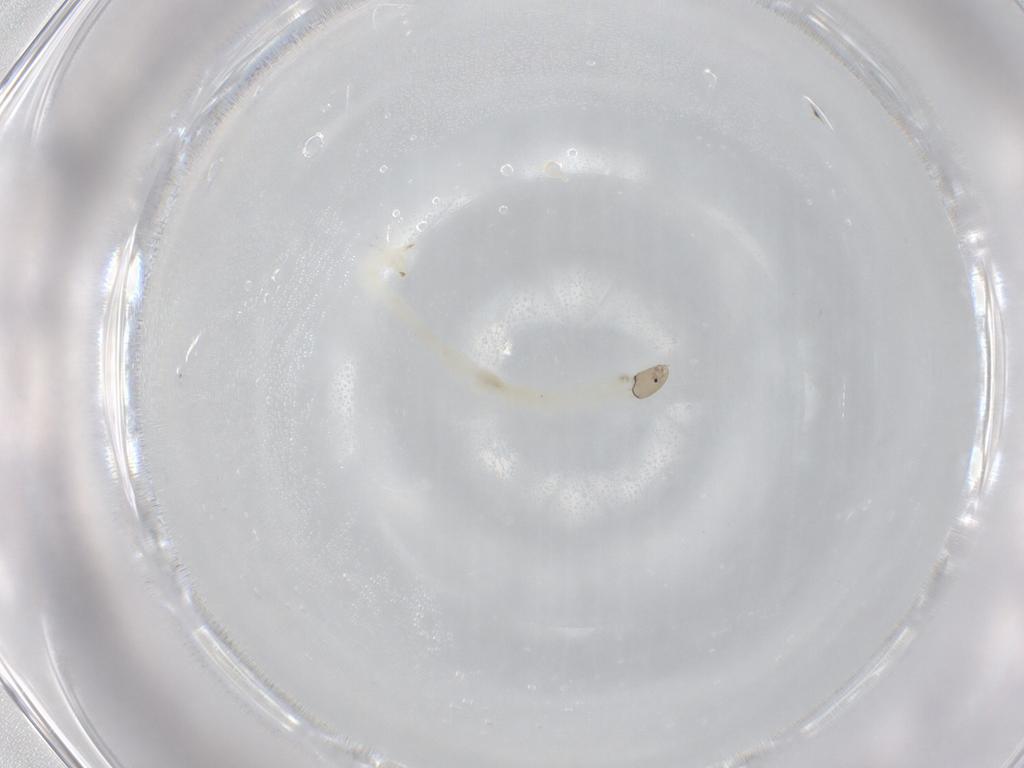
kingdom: Animalia
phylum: Arthropoda
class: Insecta
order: Diptera
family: Chironomidae
